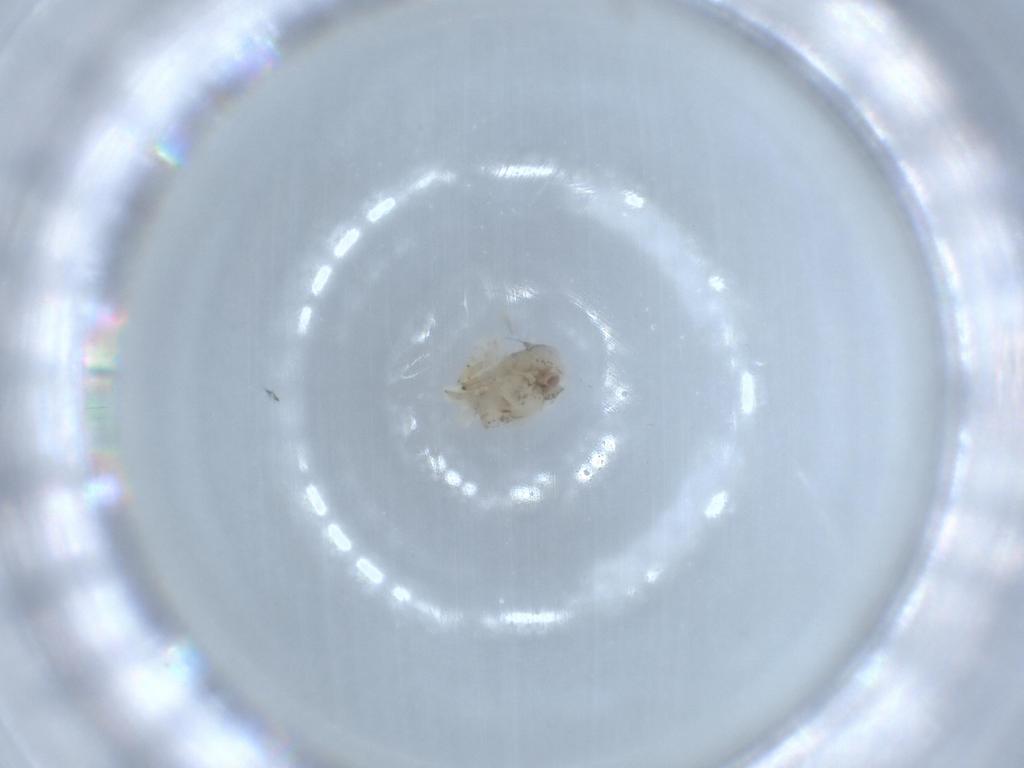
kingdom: Animalia
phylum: Arthropoda
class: Insecta
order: Hemiptera
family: Acanaloniidae
